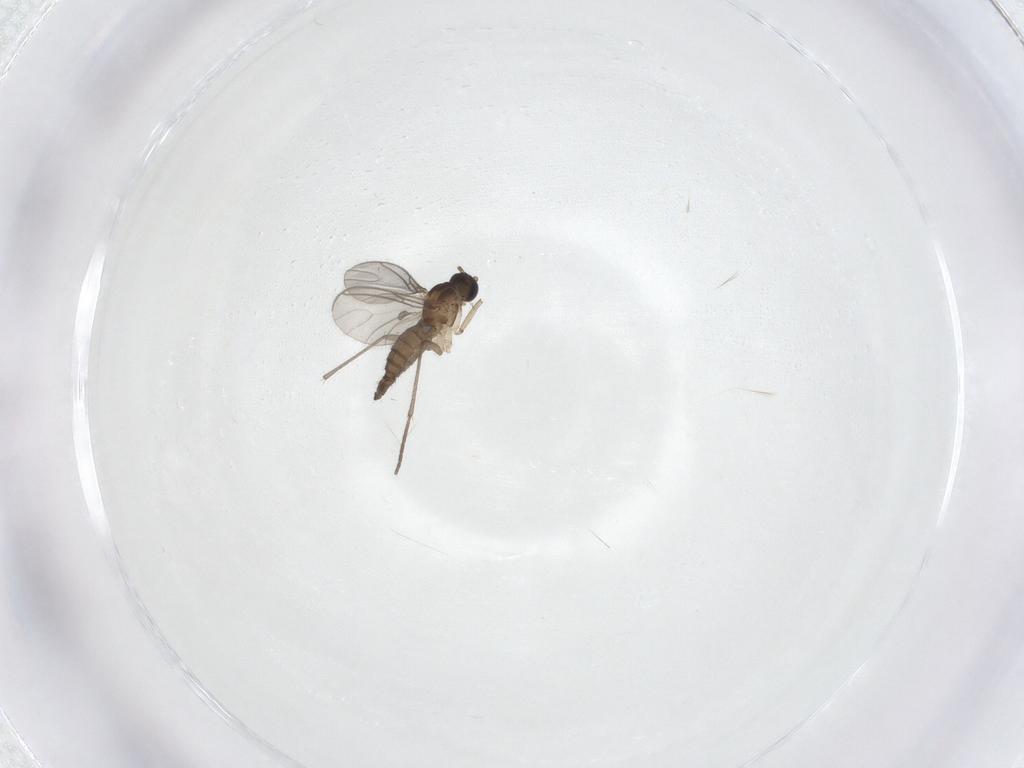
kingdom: Animalia
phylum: Arthropoda
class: Insecta
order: Diptera
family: Sciaridae
